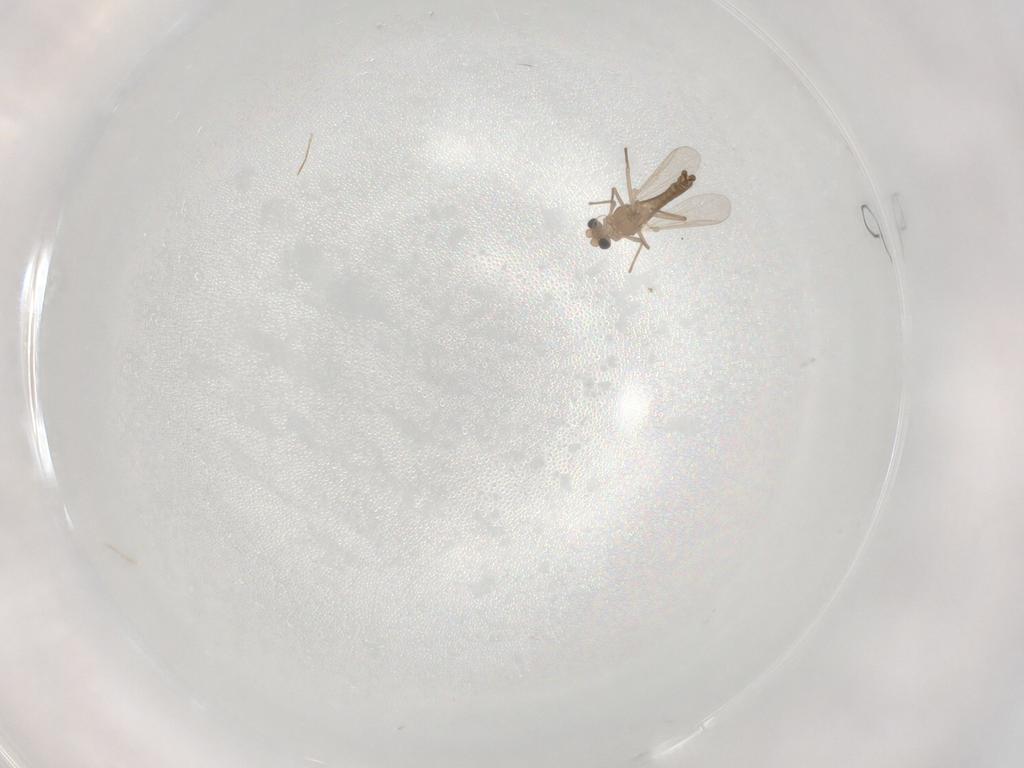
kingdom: Animalia
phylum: Arthropoda
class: Insecta
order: Diptera
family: Chironomidae
